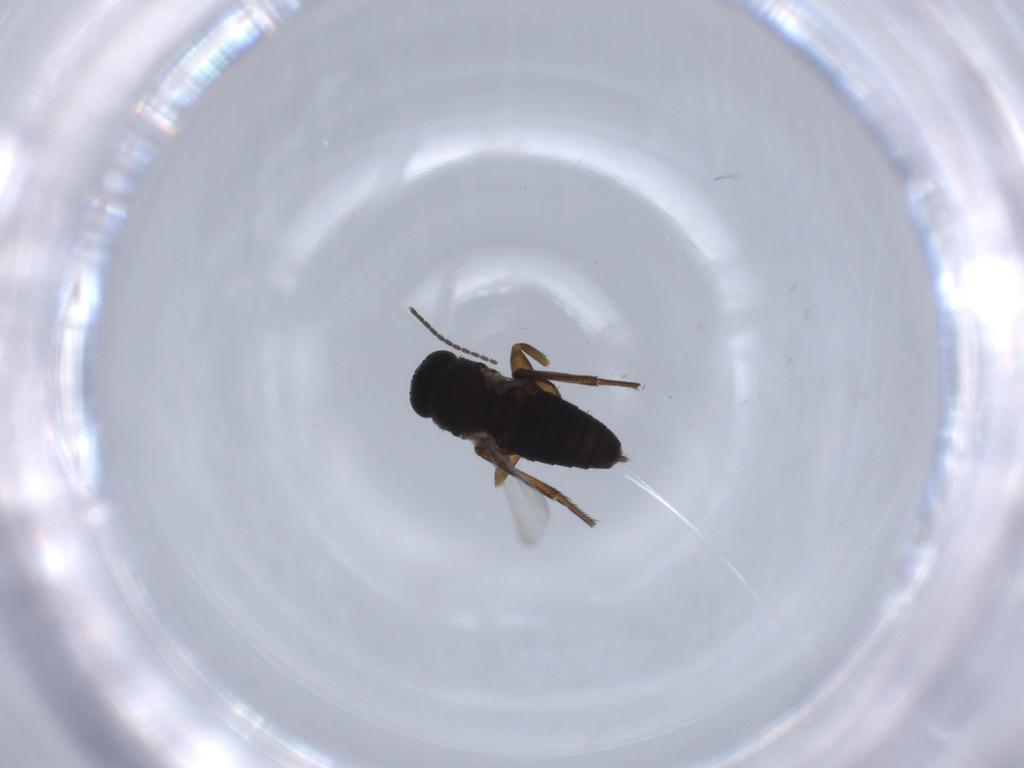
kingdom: Animalia
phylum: Arthropoda
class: Insecta
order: Diptera
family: Phoridae
